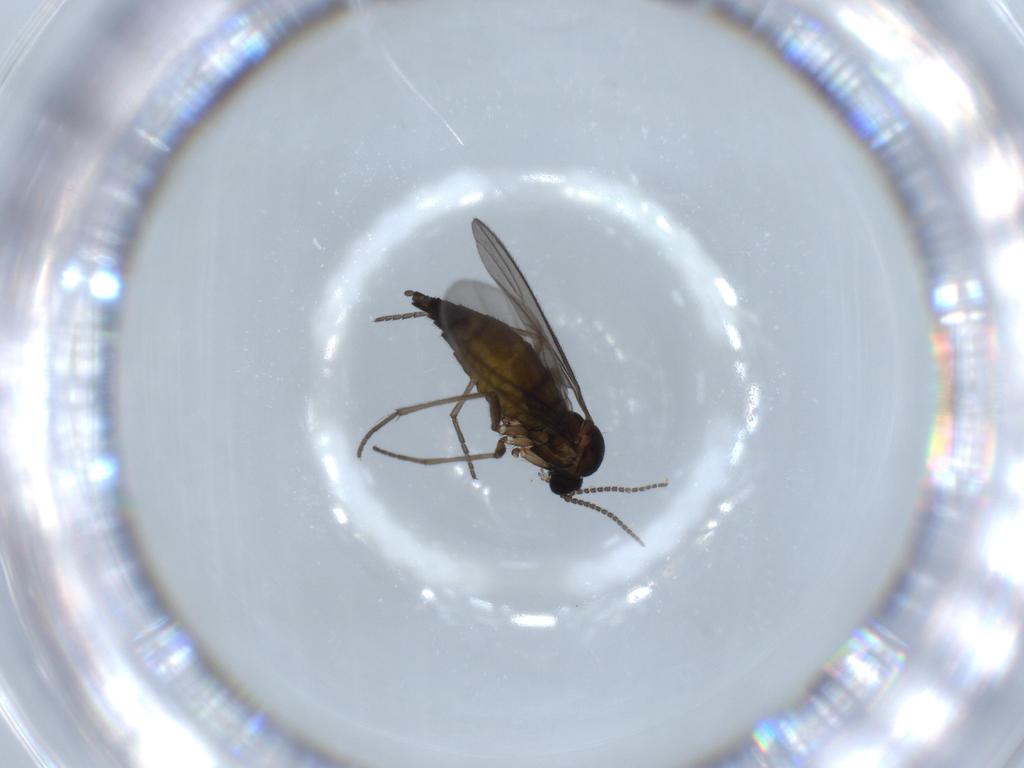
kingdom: Animalia
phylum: Arthropoda
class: Insecta
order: Diptera
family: Sciaridae
